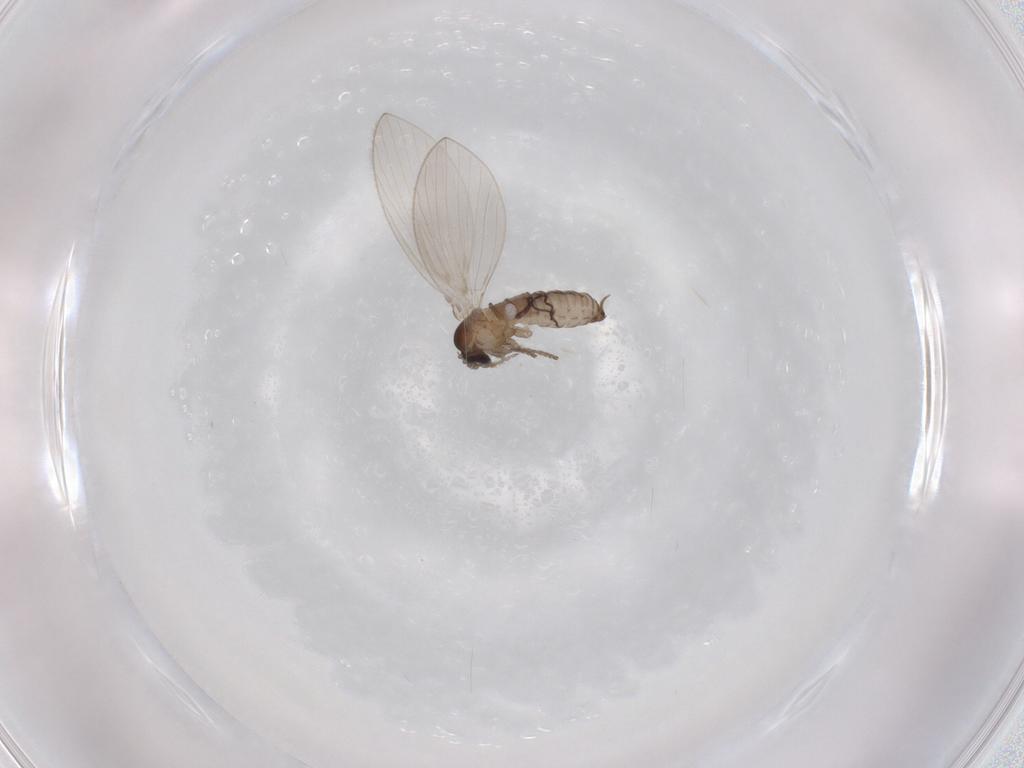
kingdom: Animalia
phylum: Arthropoda
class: Insecta
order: Diptera
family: Psychodidae
